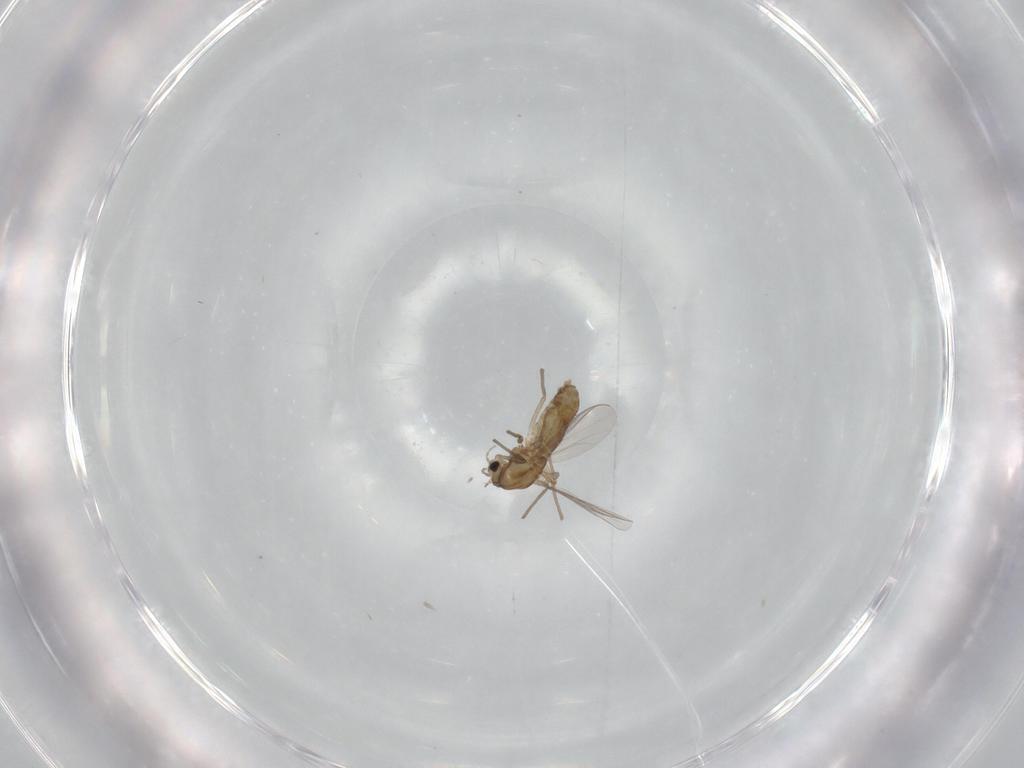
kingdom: Animalia
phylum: Arthropoda
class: Insecta
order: Diptera
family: Chironomidae
